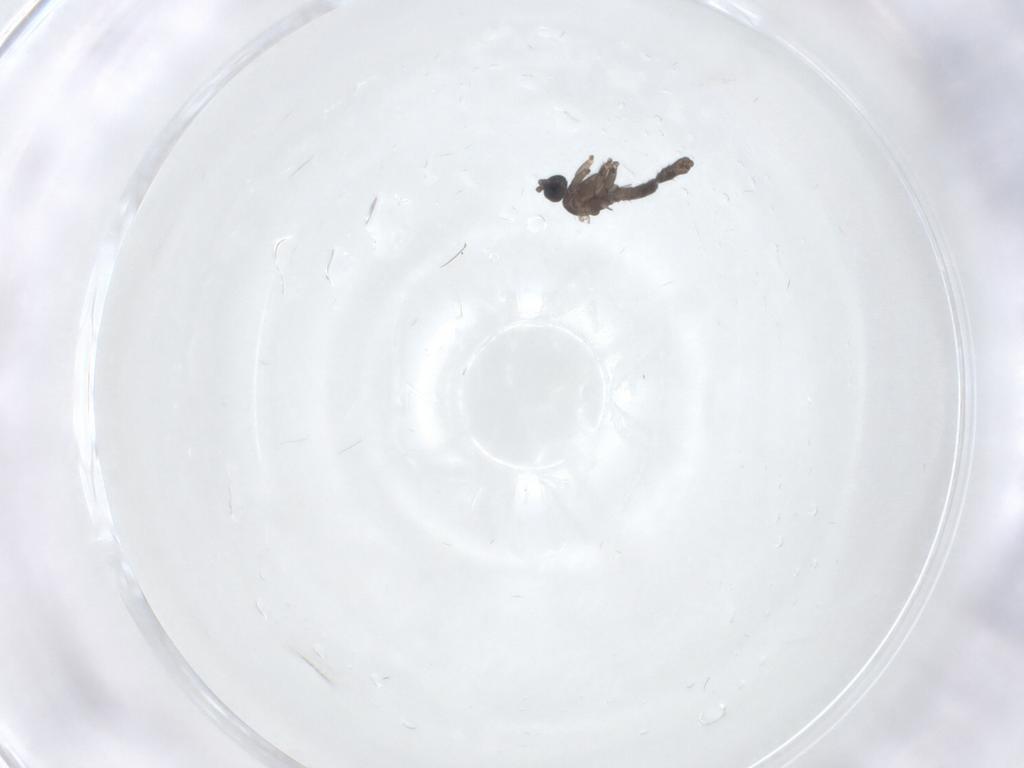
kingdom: Animalia
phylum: Arthropoda
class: Insecta
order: Diptera
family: Sciaridae
